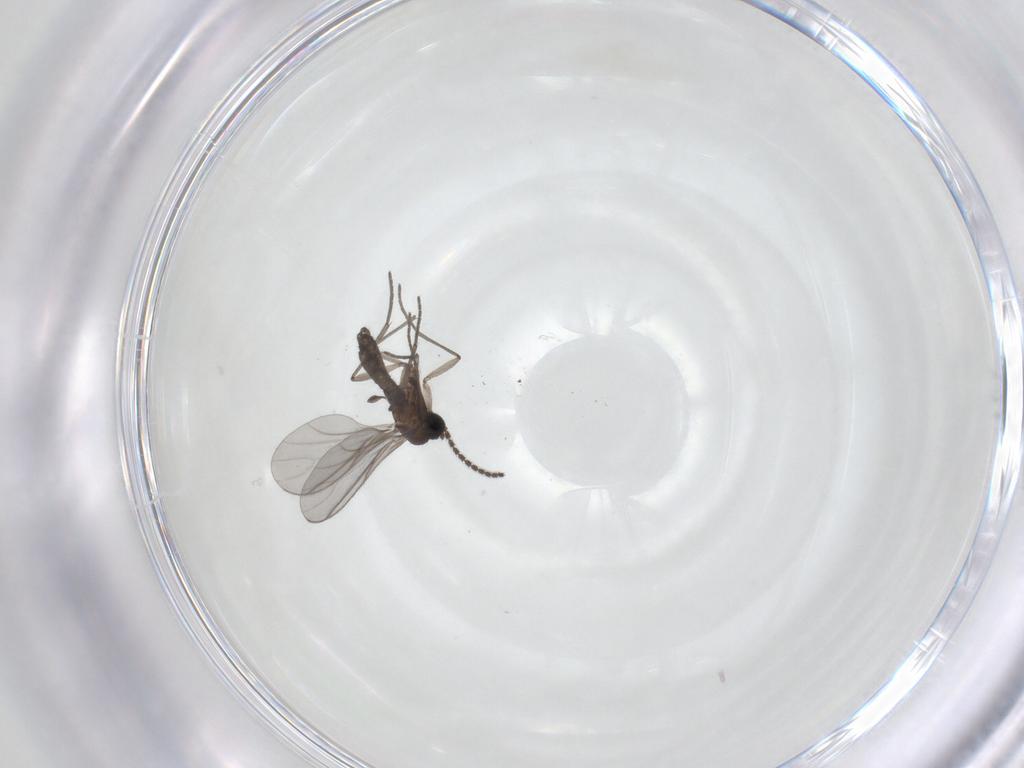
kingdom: Animalia
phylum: Arthropoda
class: Insecta
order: Diptera
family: Sciaridae
